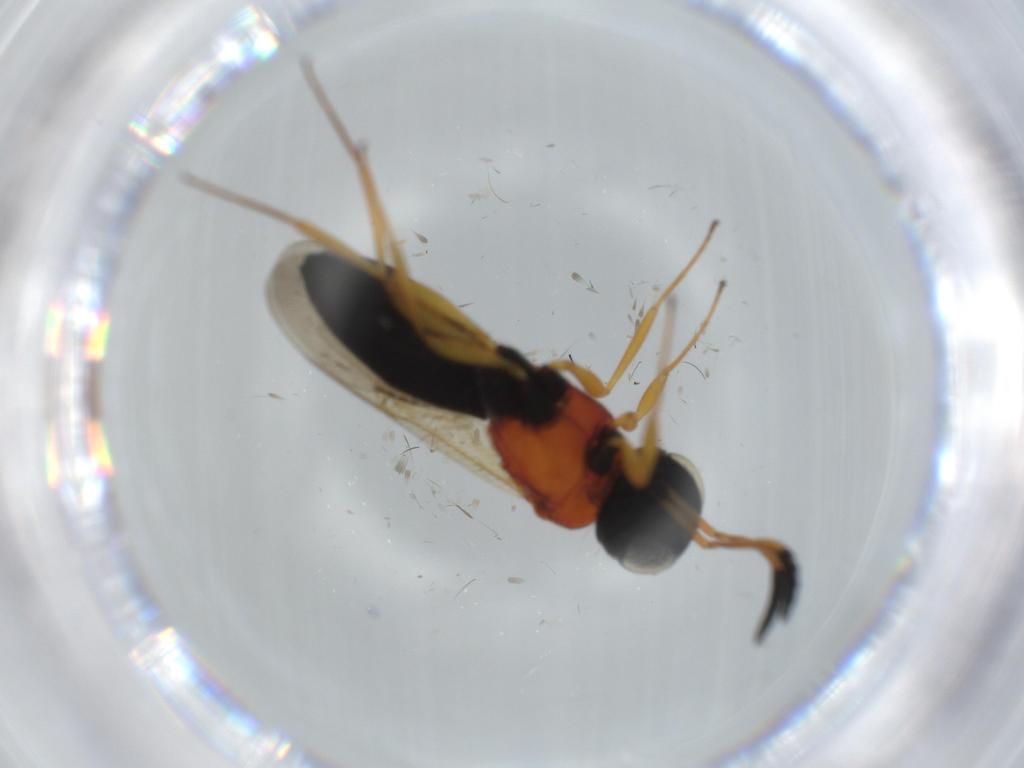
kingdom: Animalia
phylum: Arthropoda
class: Insecta
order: Hymenoptera
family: Scelionidae
